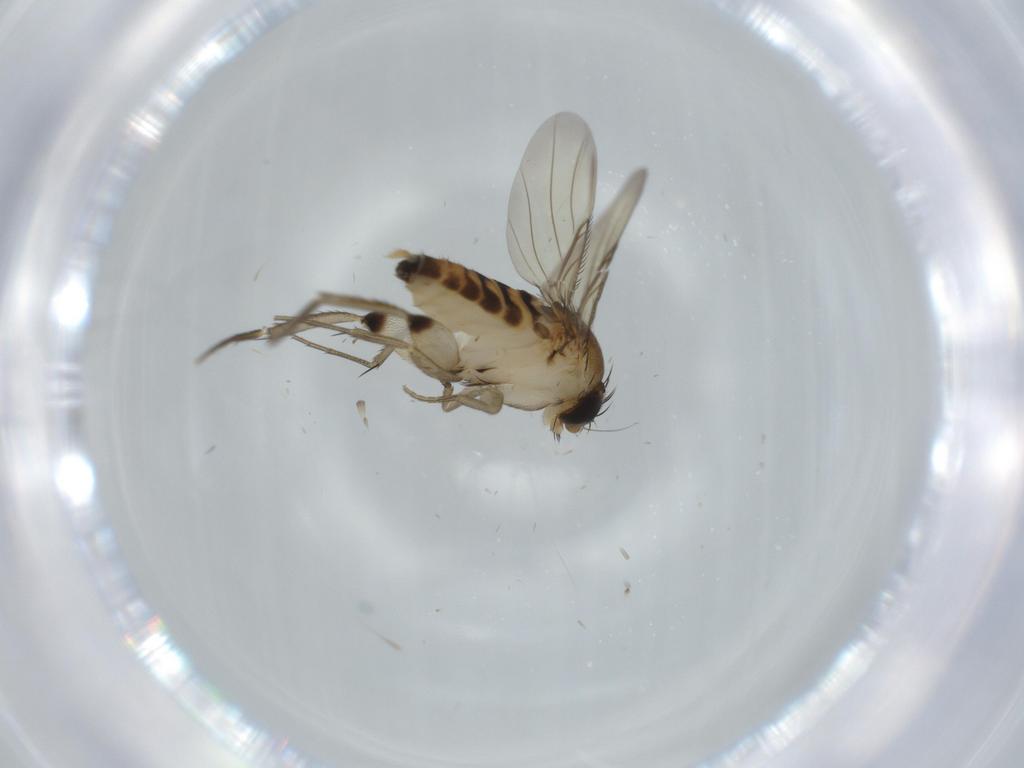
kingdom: Animalia
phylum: Arthropoda
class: Insecta
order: Diptera
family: Phoridae
